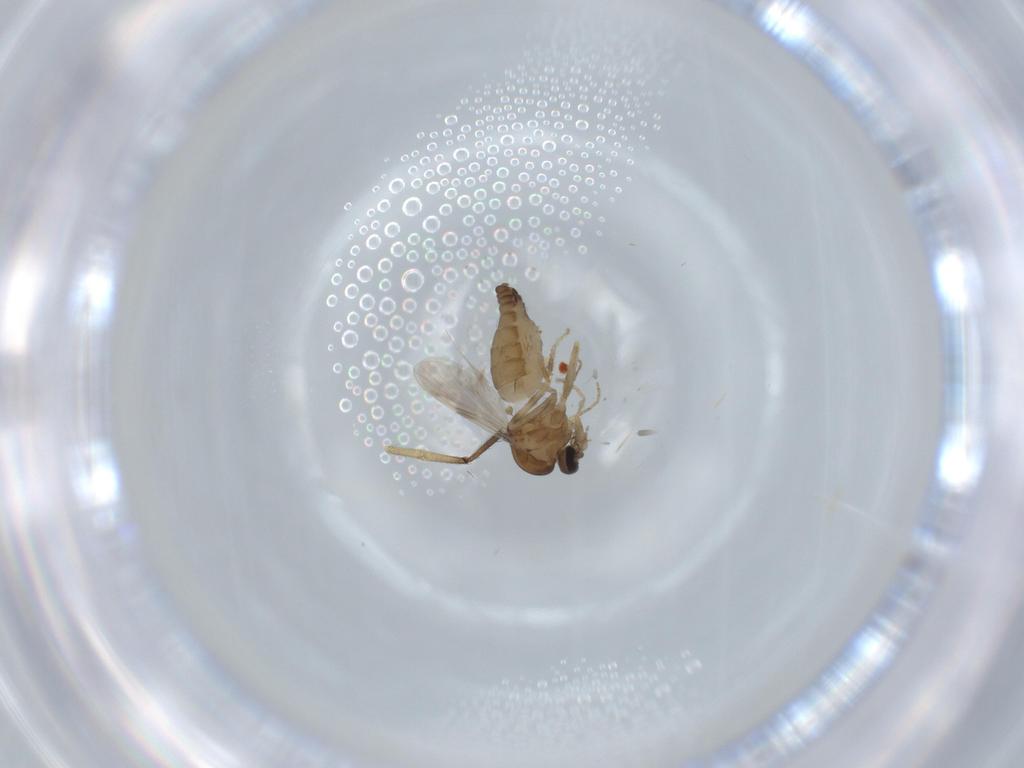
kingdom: Animalia
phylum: Arthropoda
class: Insecta
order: Diptera
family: Ceratopogonidae
